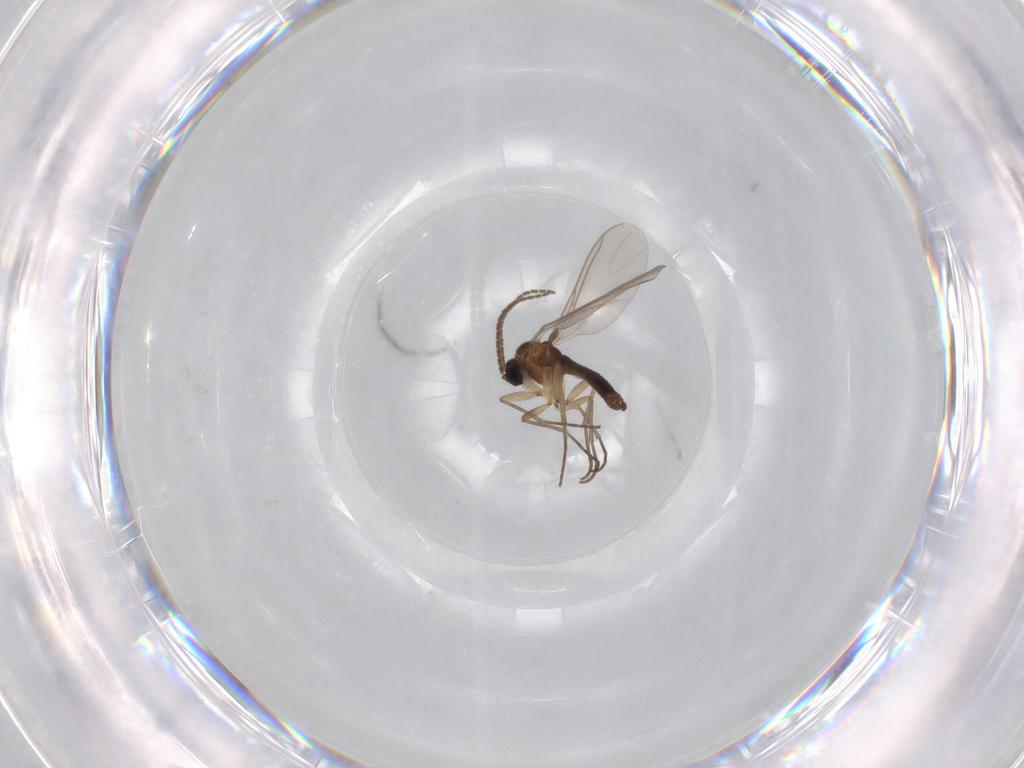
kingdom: Animalia
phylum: Arthropoda
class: Insecta
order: Diptera
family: Sciaridae
